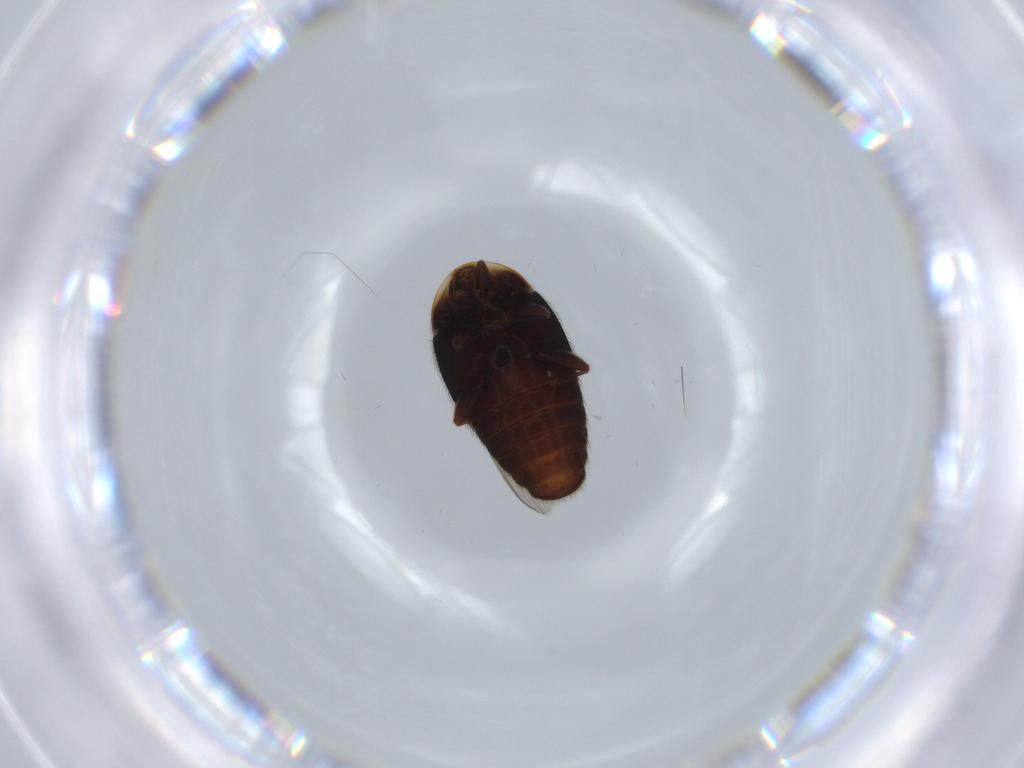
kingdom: Animalia
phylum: Arthropoda
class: Insecta
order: Coleoptera
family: Corylophidae
